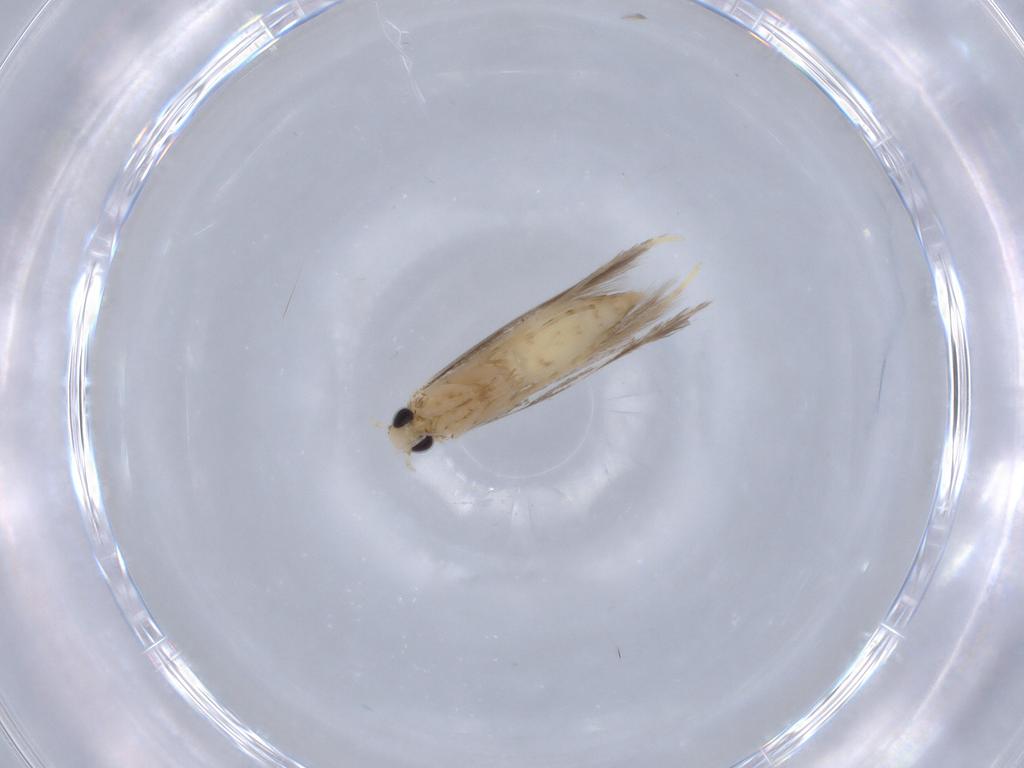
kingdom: Animalia
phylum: Arthropoda
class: Insecta
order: Lepidoptera
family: Nepticulidae
